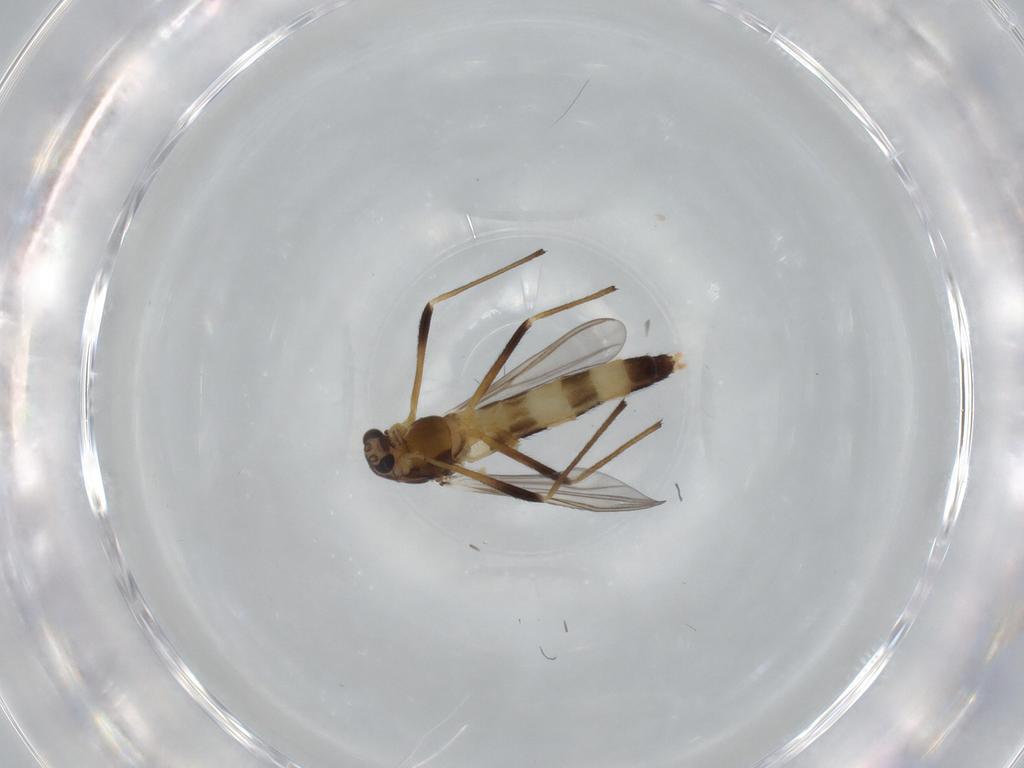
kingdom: Animalia
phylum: Arthropoda
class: Insecta
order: Diptera
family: Chironomidae
